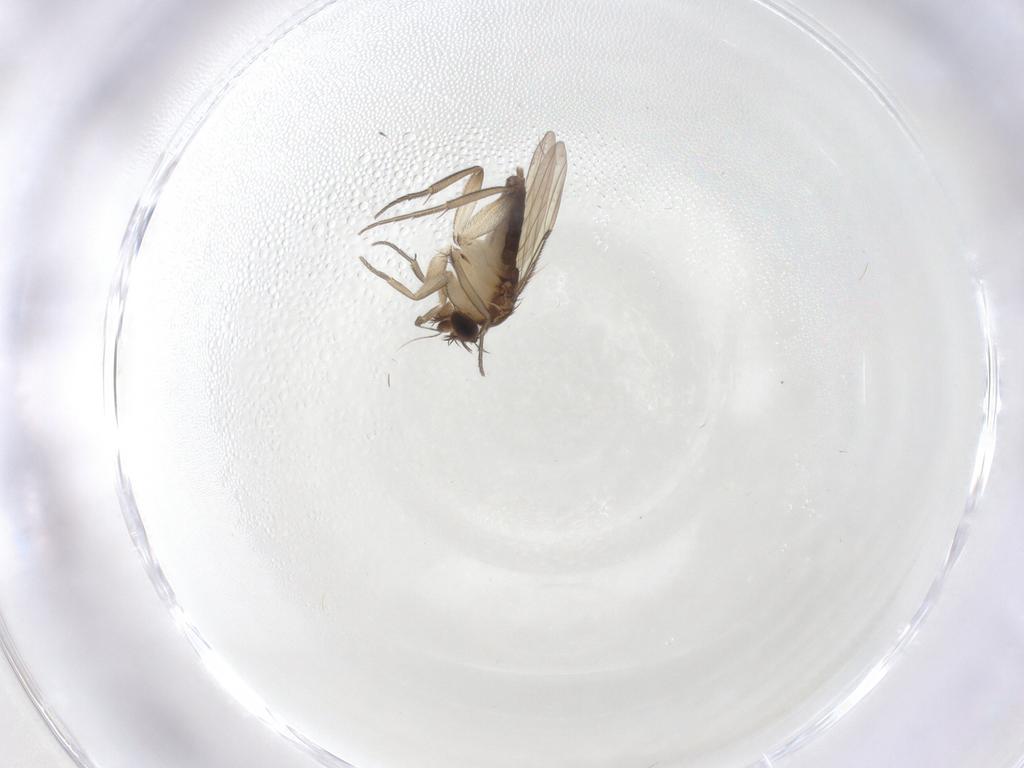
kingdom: Animalia
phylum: Arthropoda
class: Insecta
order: Diptera
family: Phoridae
